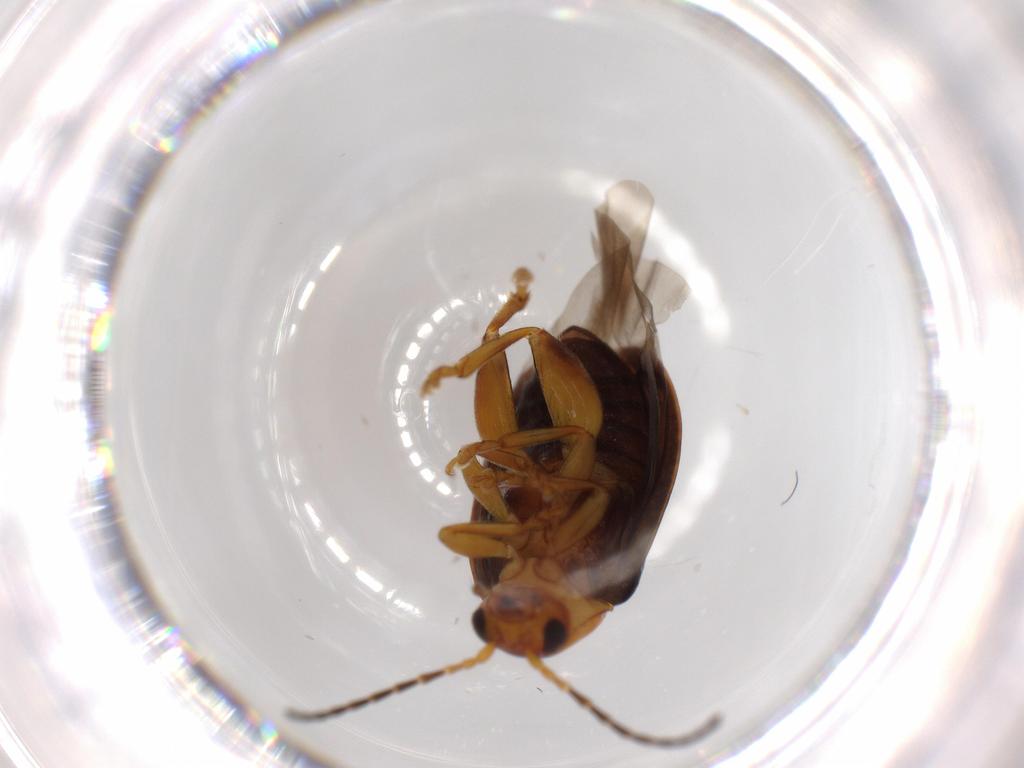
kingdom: Animalia
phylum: Arthropoda
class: Insecta
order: Coleoptera
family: Chrysomelidae
